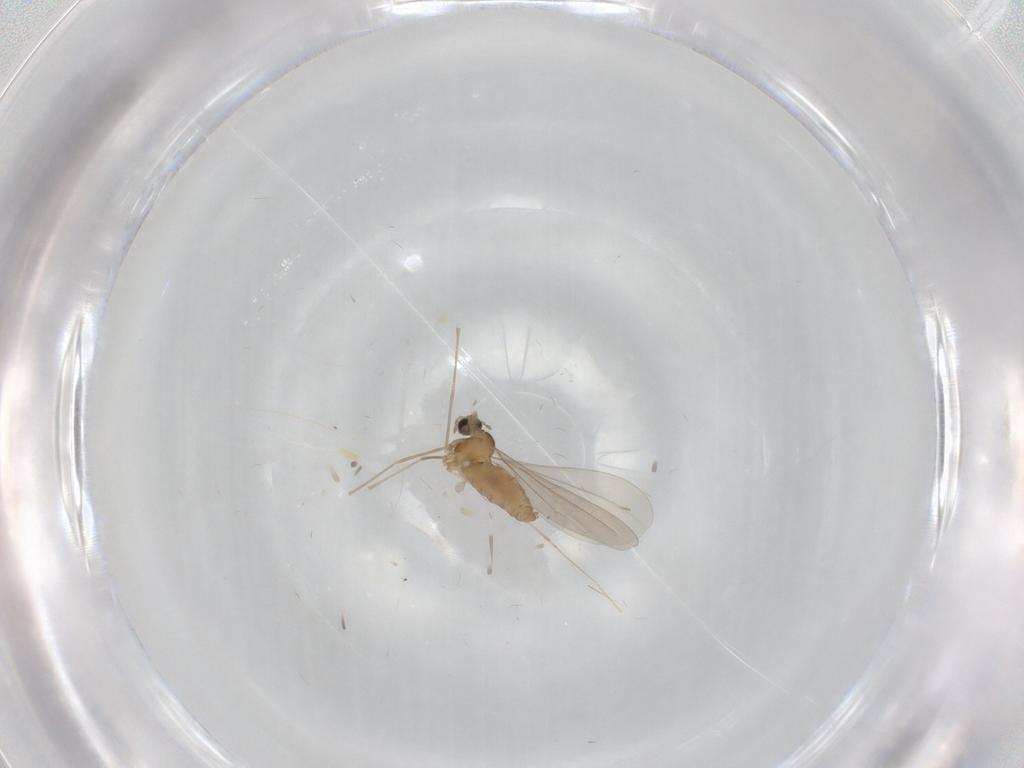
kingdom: Animalia
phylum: Arthropoda
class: Insecta
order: Diptera
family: Cecidomyiidae
